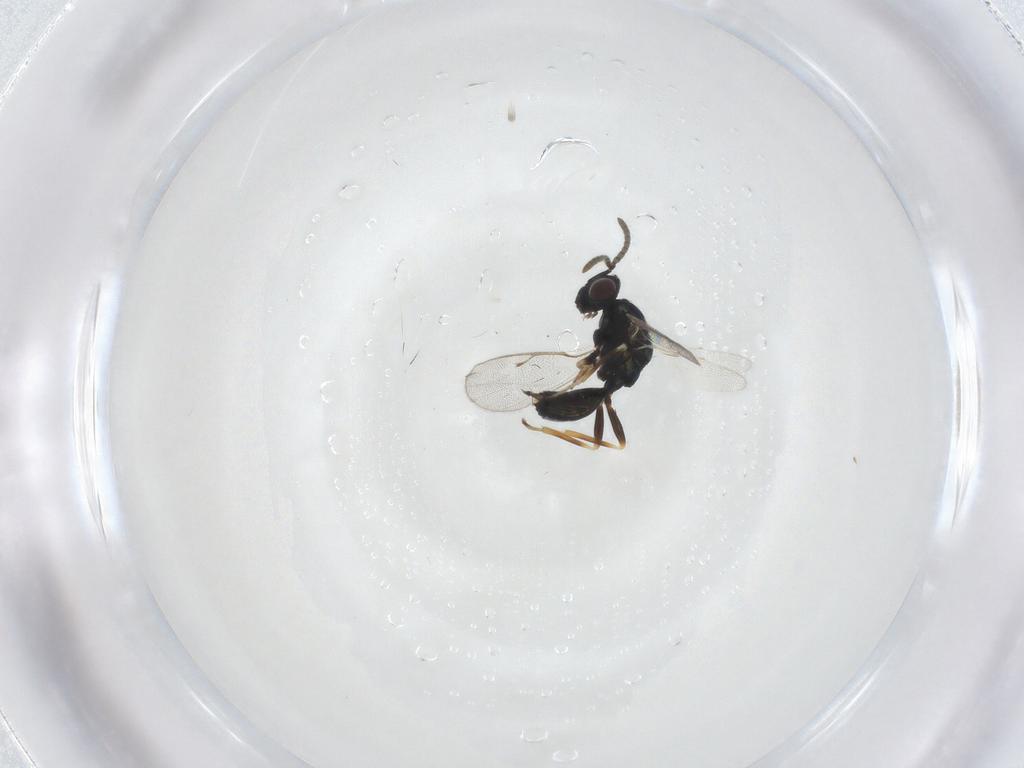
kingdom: Animalia
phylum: Arthropoda
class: Insecta
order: Hymenoptera
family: Pteromalidae
